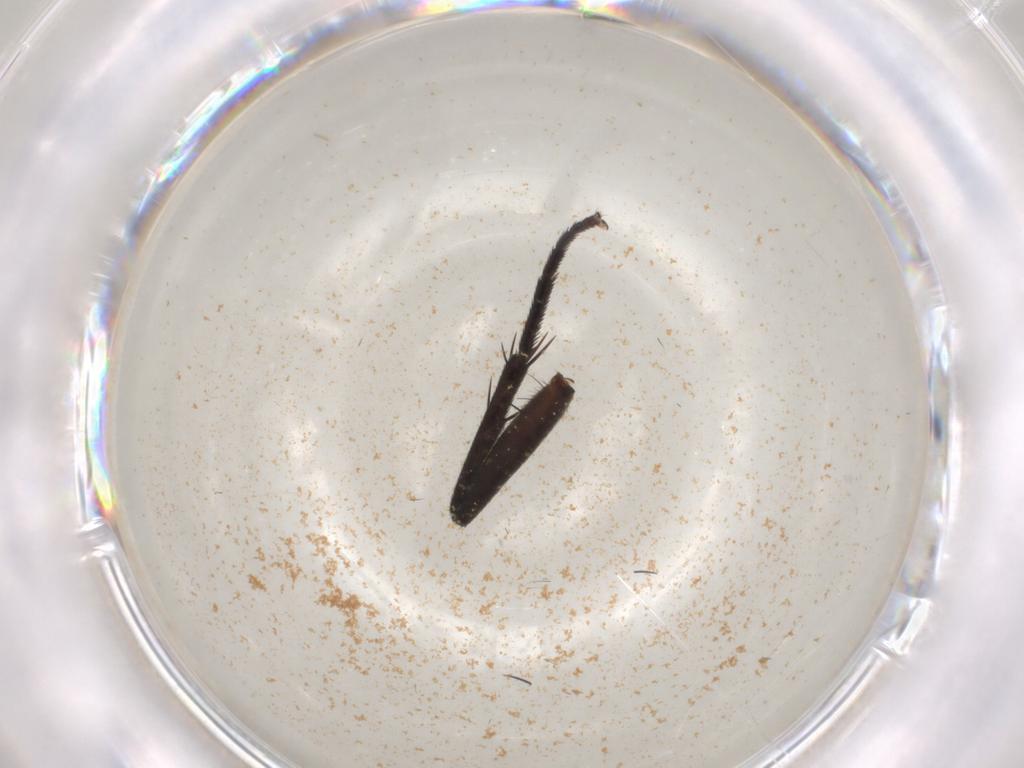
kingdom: Animalia
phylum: Arthropoda
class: Insecta
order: Diptera
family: Sarcophagidae
